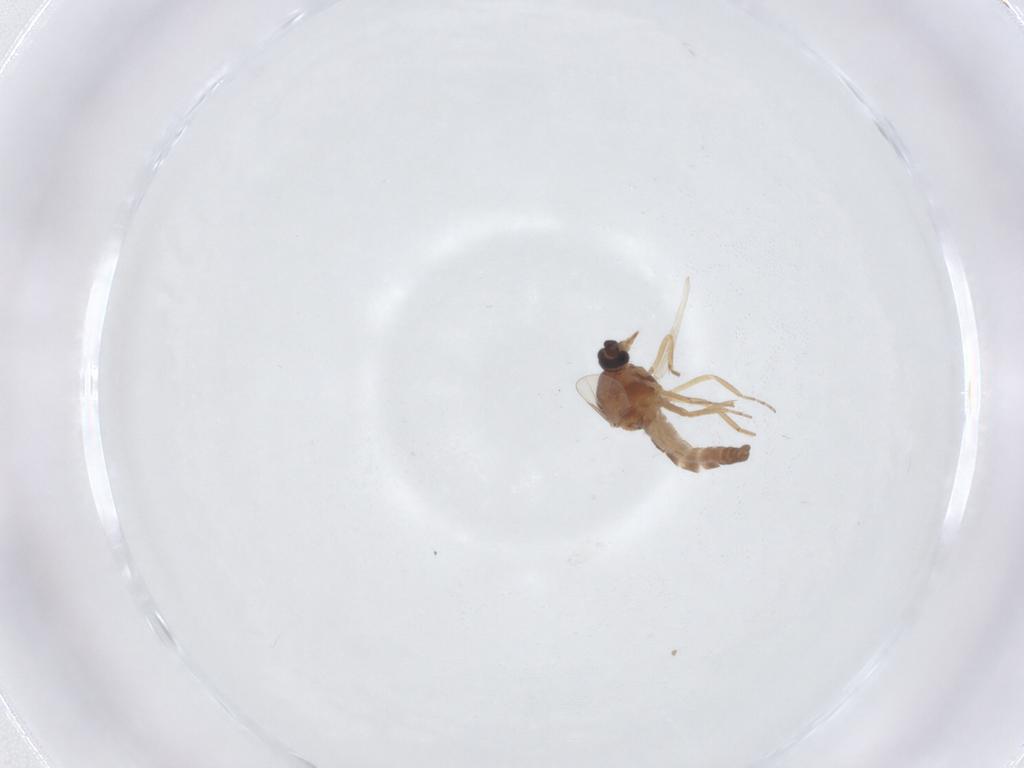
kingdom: Animalia
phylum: Arthropoda
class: Insecta
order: Diptera
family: Ceratopogonidae
